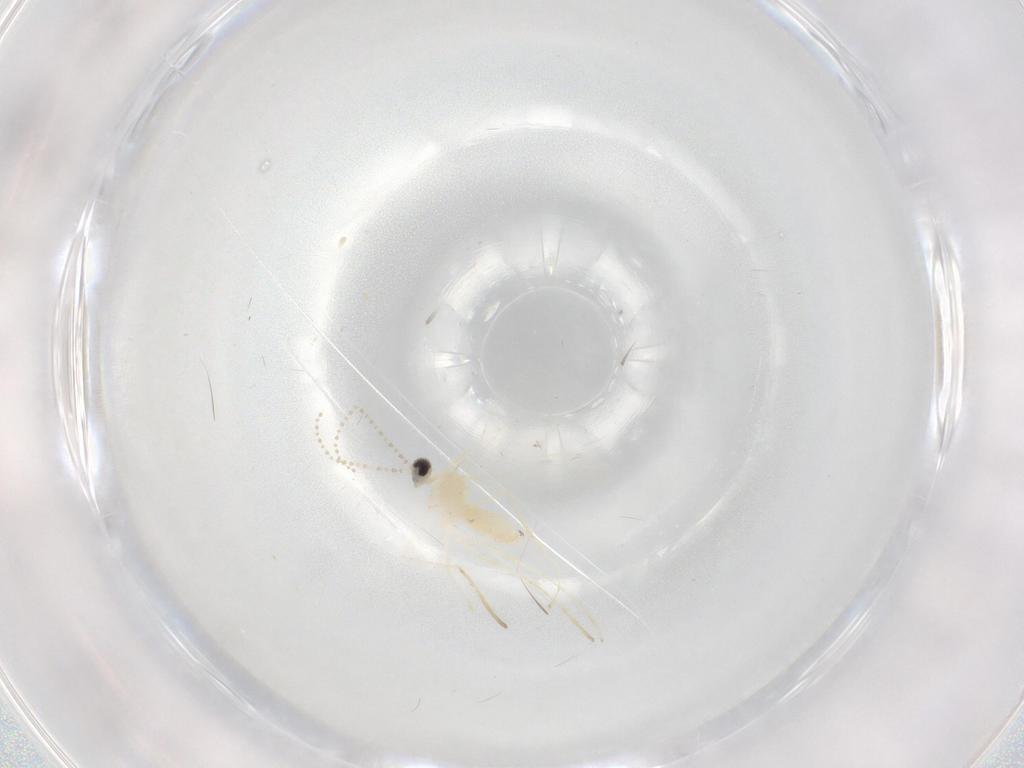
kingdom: Animalia
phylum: Arthropoda
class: Insecta
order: Diptera
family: Cecidomyiidae
